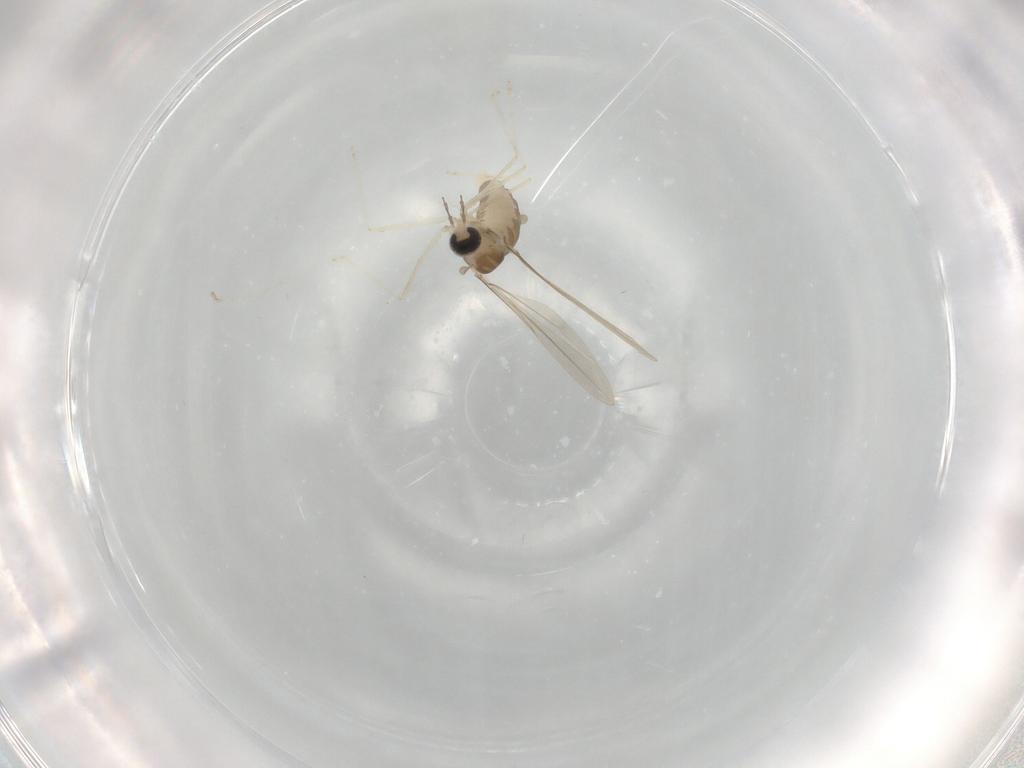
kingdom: Animalia
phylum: Arthropoda
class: Insecta
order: Diptera
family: Cecidomyiidae
